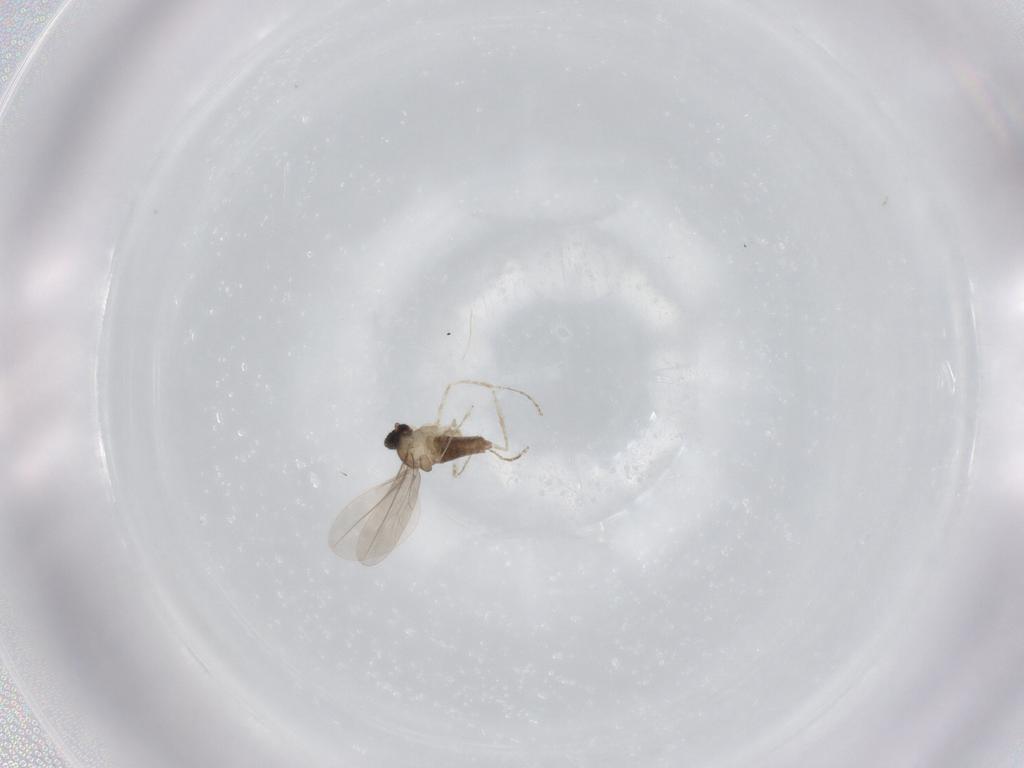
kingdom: Animalia
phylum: Arthropoda
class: Insecta
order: Diptera
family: Cecidomyiidae
